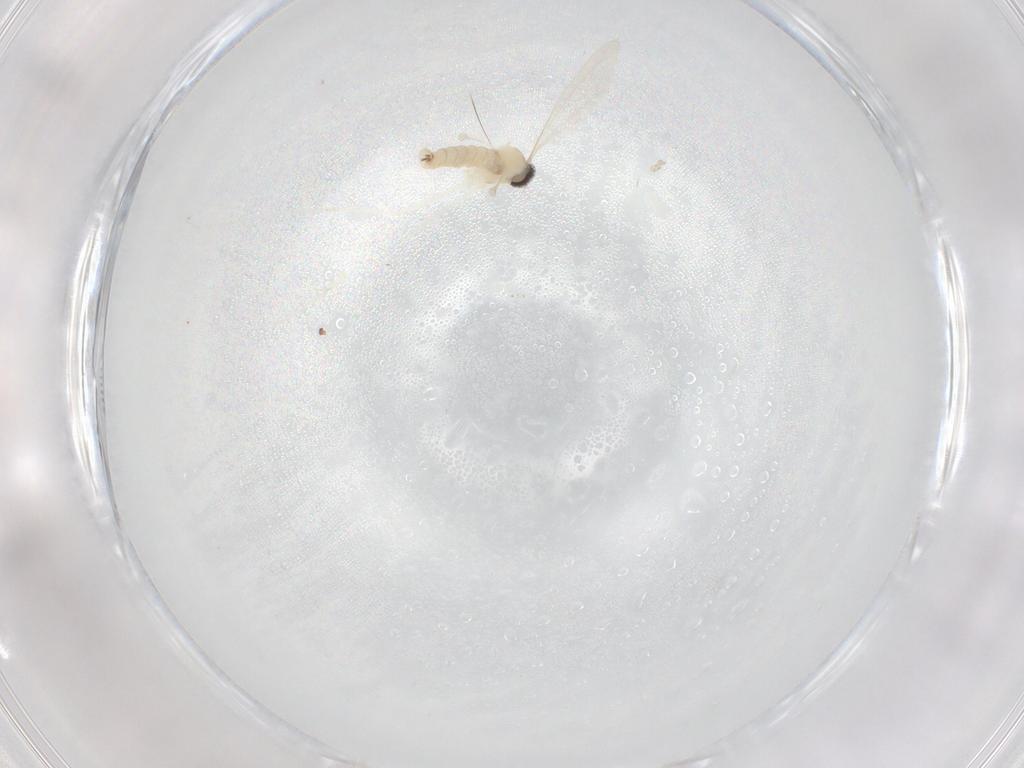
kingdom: Animalia
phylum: Arthropoda
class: Insecta
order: Diptera
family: Cecidomyiidae
